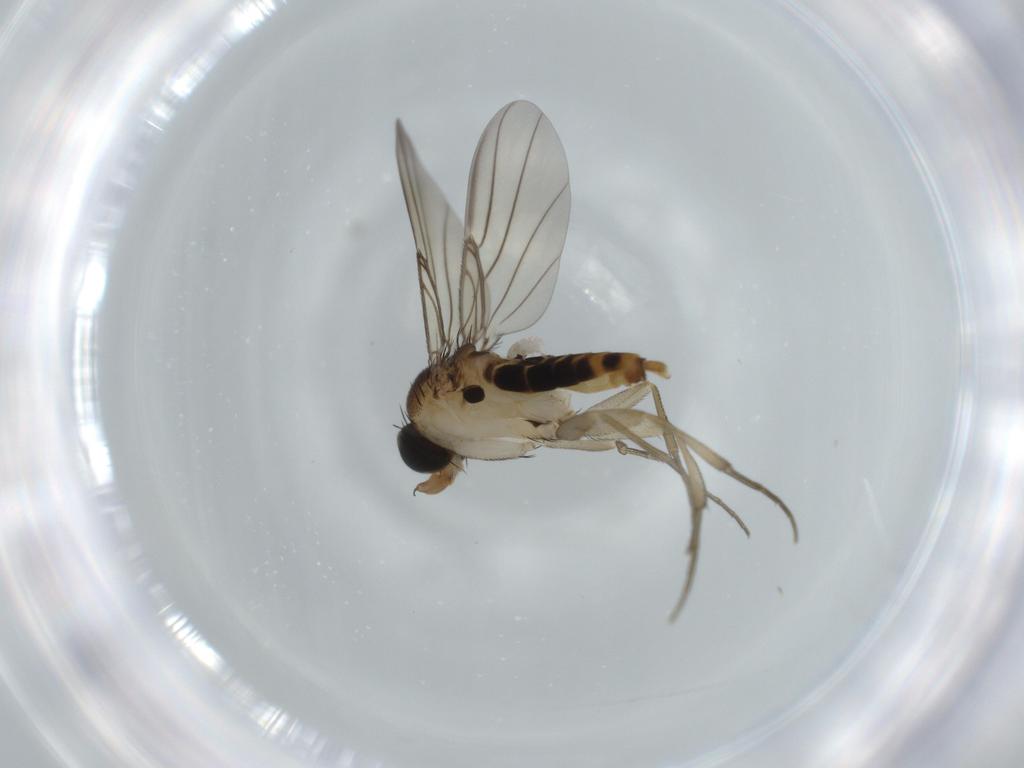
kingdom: Animalia
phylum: Arthropoda
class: Insecta
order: Diptera
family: Phoridae
